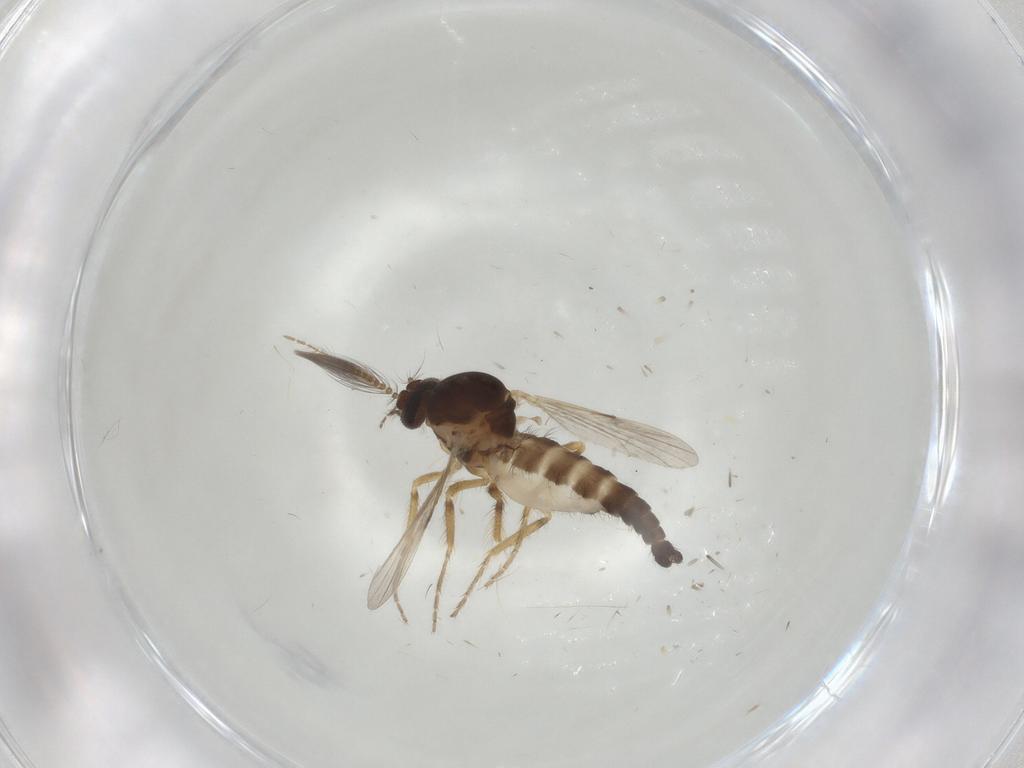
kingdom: Animalia
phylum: Arthropoda
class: Insecta
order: Diptera
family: Ceratopogonidae
